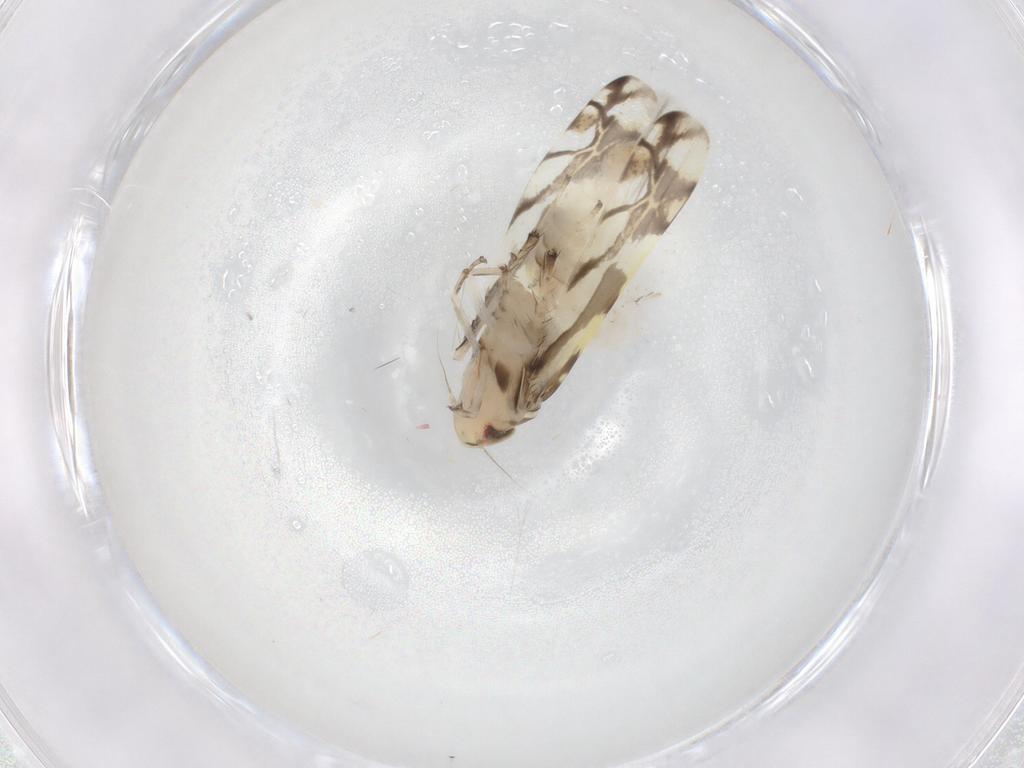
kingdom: Animalia
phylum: Arthropoda
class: Insecta
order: Hemiptera
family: Cicadellidae
